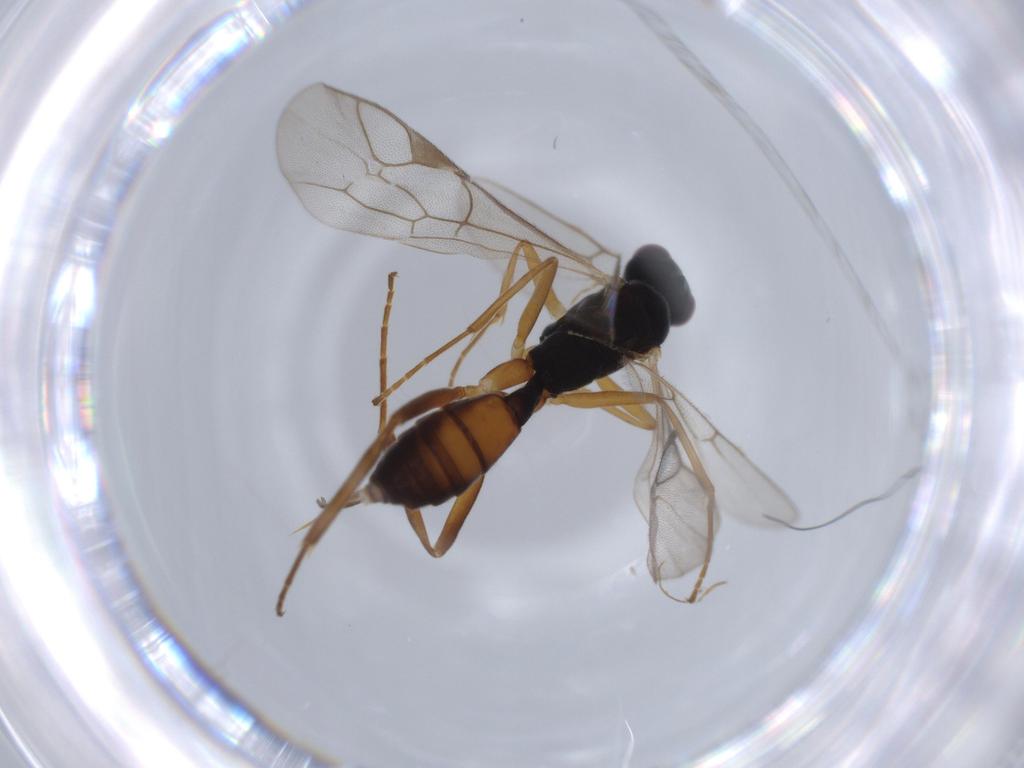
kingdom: Animalia
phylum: Arthropoda
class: Insecta
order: Hymenoptera
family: Ichneumonidae
